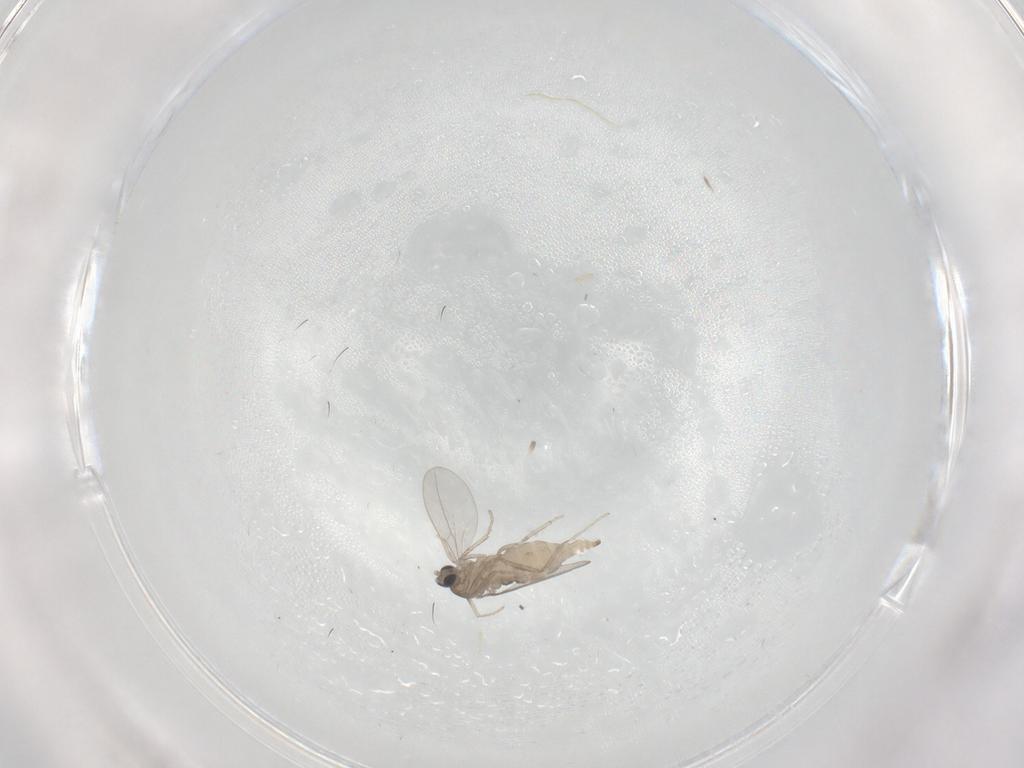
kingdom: Animalia
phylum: Arthropoda
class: Insecta
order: Diptera
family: Cecidomyiidae
